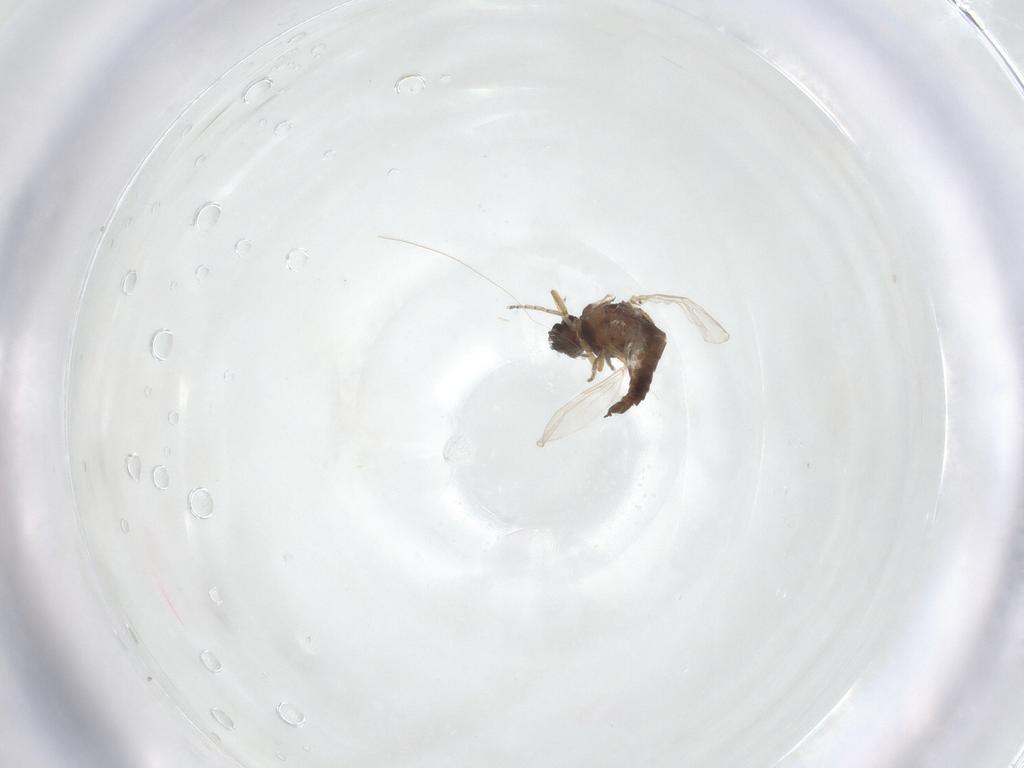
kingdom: Animalia
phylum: Arthropoda
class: Insecta
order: Diptera
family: Ceratopogonidae
